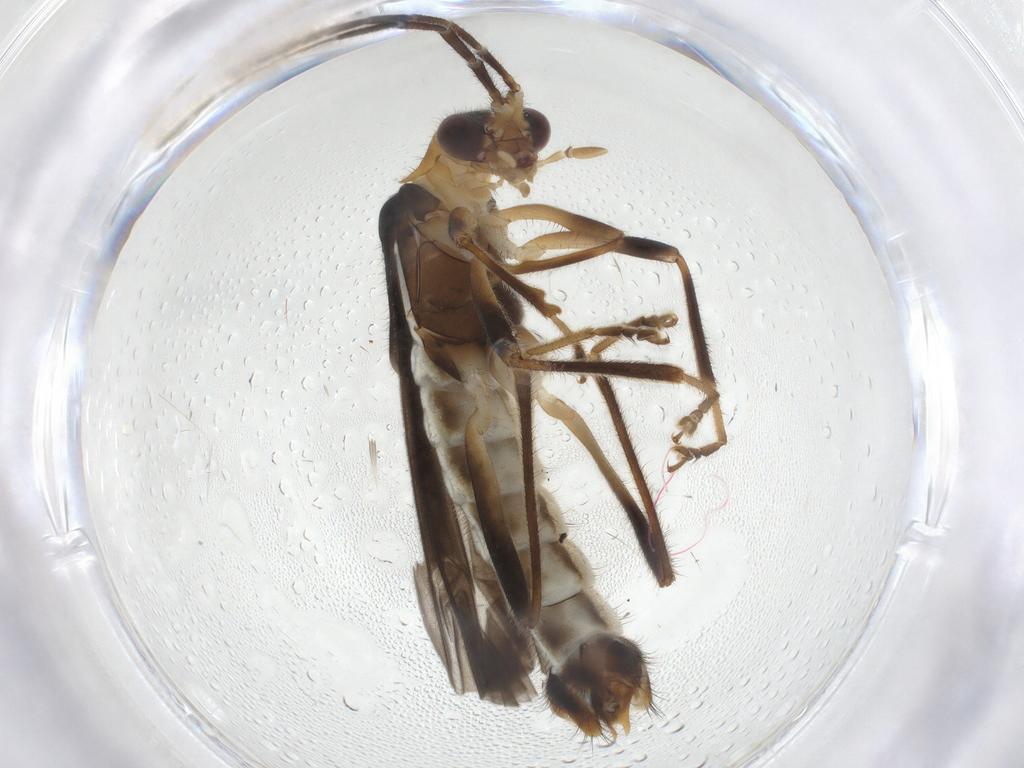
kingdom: Animalia
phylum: Arthropoda
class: Insecta
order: Coleoptera
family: Cantharidae
